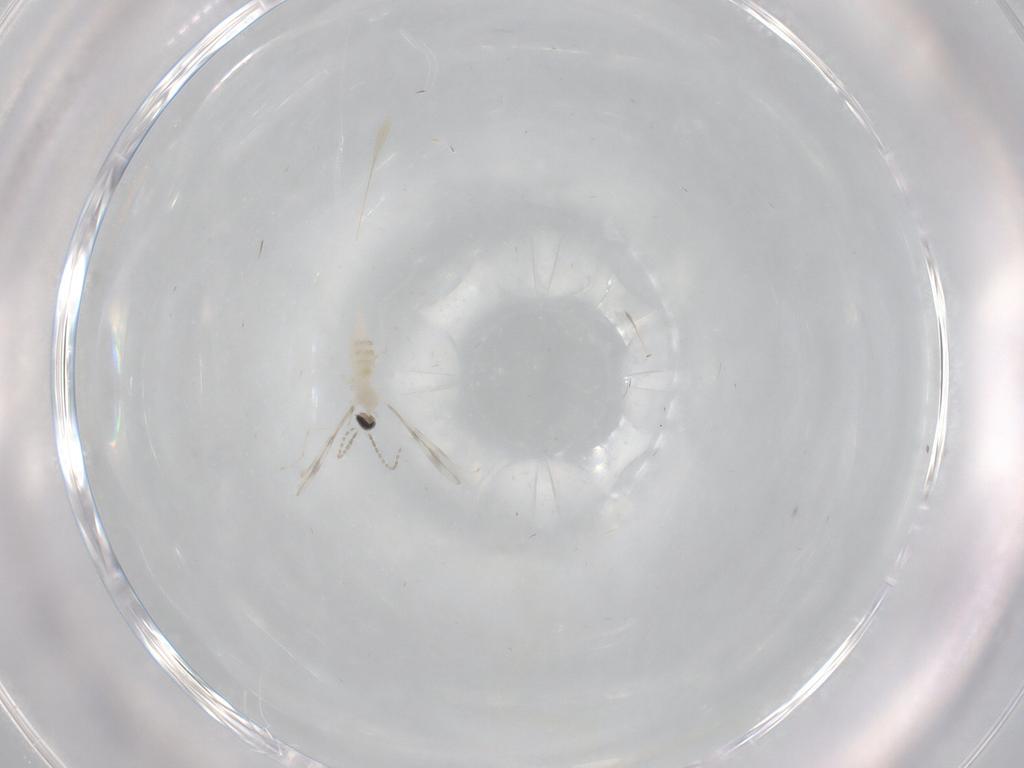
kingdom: Animalia
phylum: Arthropoda
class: Insecta
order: Diptera
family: Cecidomyiidae
